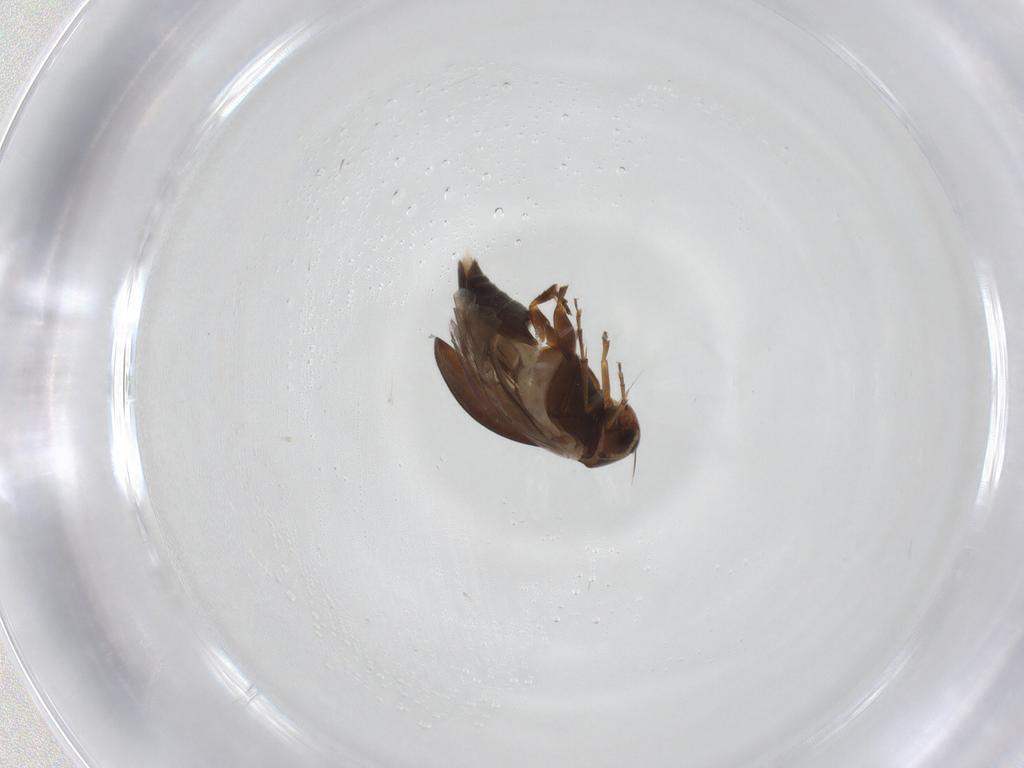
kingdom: Animalia
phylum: Arthropoda
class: Insecta
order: Coleoptera
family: Scraptiidae
